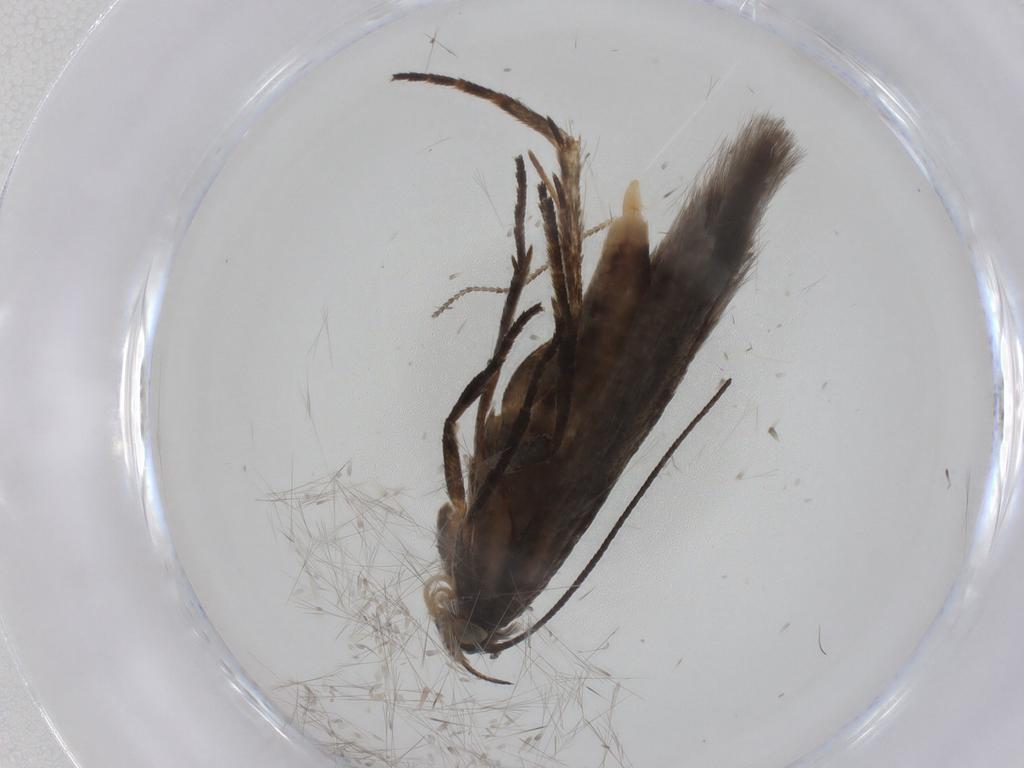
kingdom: Animalia
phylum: Arthropoda
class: Insecta
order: Lepidoptera
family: Gelechiidae
